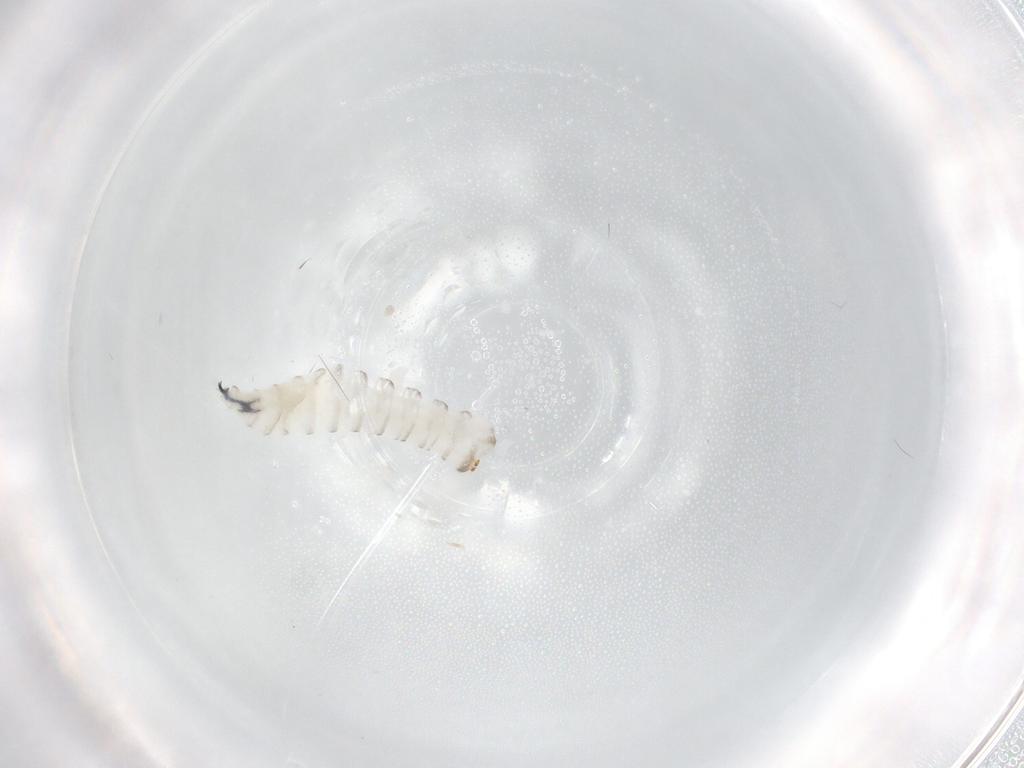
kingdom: Animalia
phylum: Arthropoda
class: Insecta
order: Diptera
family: Sarcophagidae
